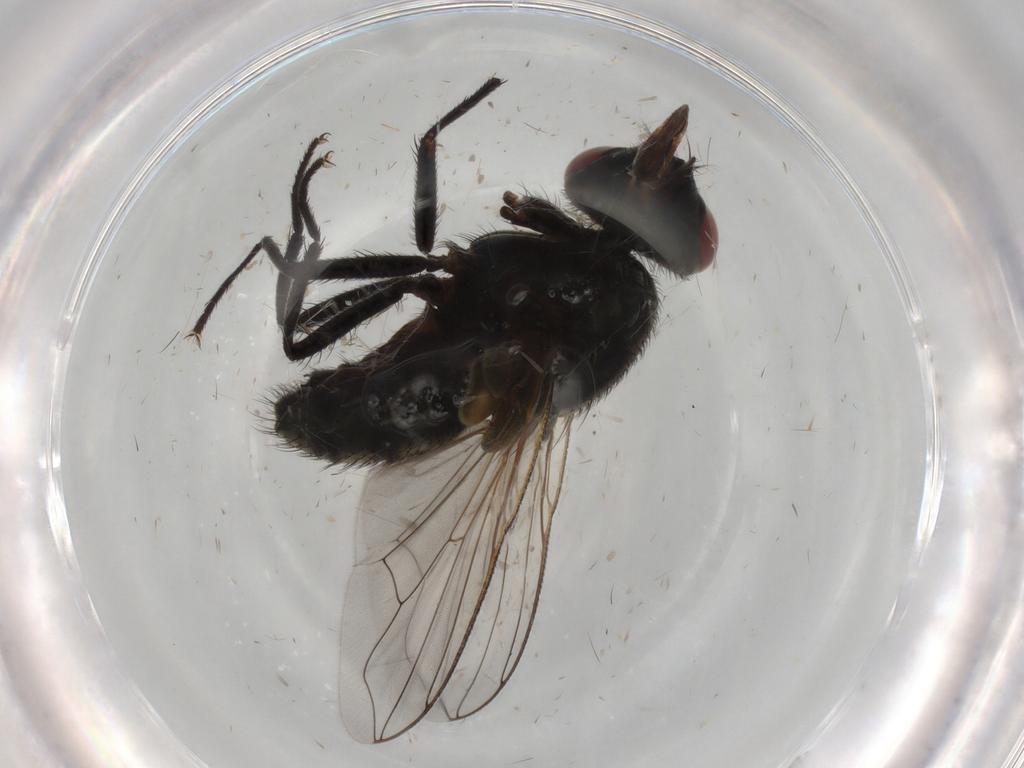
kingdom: Animalia
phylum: Arthropoda
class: Insecta
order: Diptera
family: Muscidae
